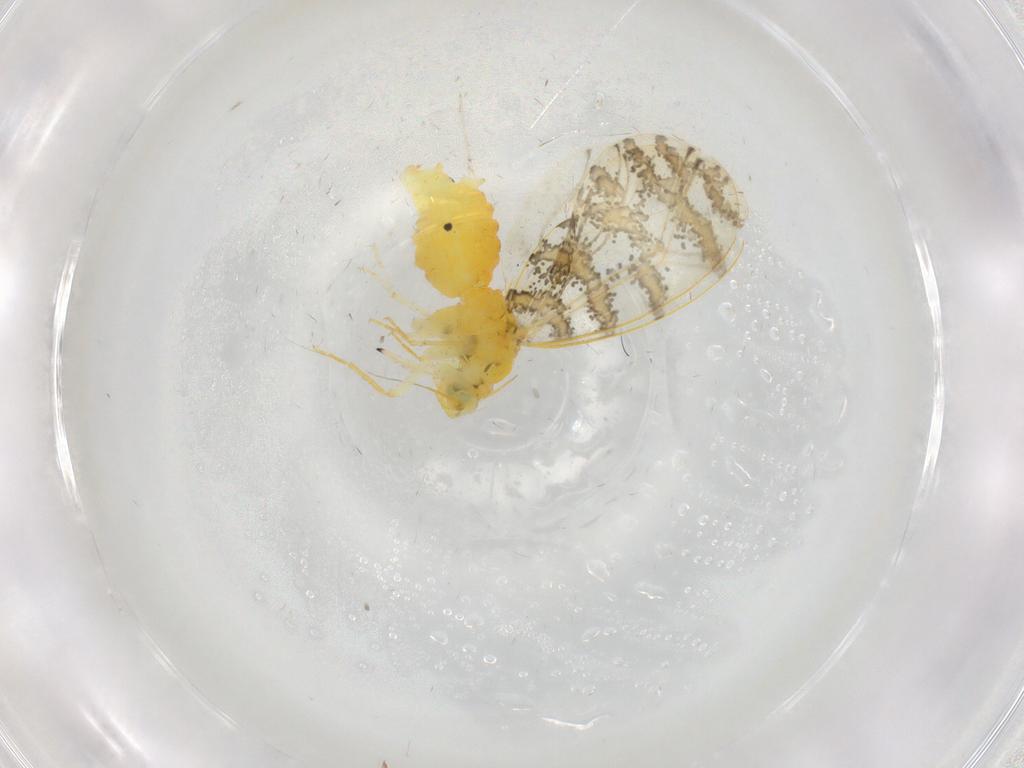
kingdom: Animalia
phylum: Arthropoda
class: Insecta
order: Hemiptera
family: Aleyrodidae
